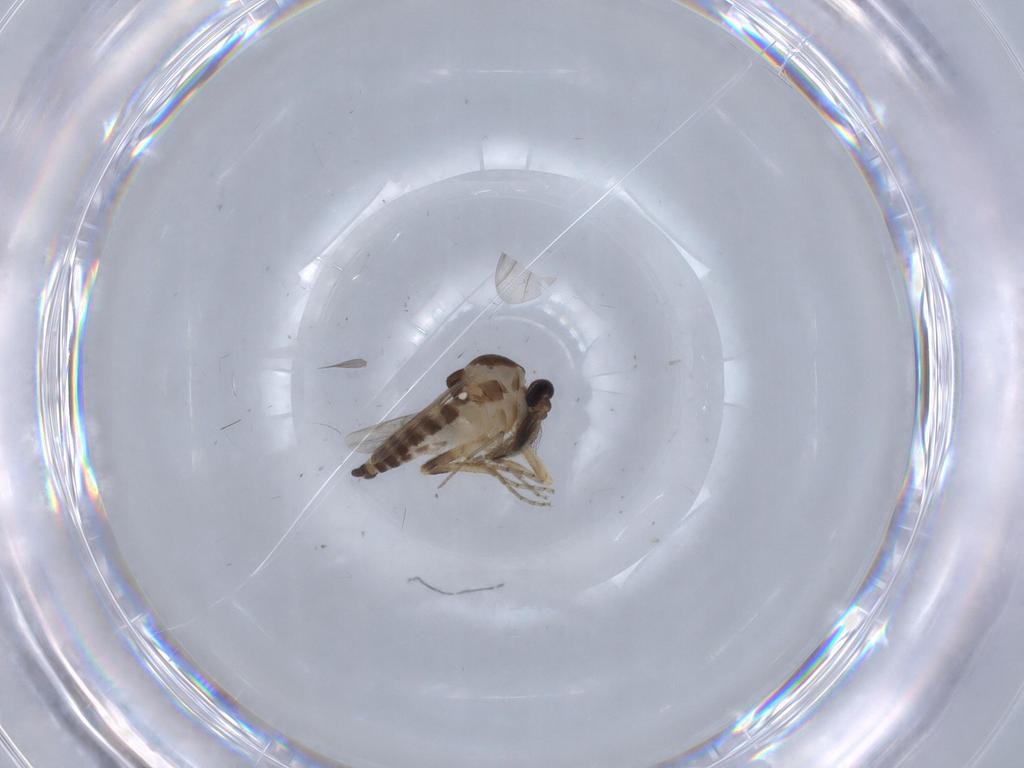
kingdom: Animalia
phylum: Arthropoda
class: Insecta
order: Diptera
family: Ceratopogonidae
